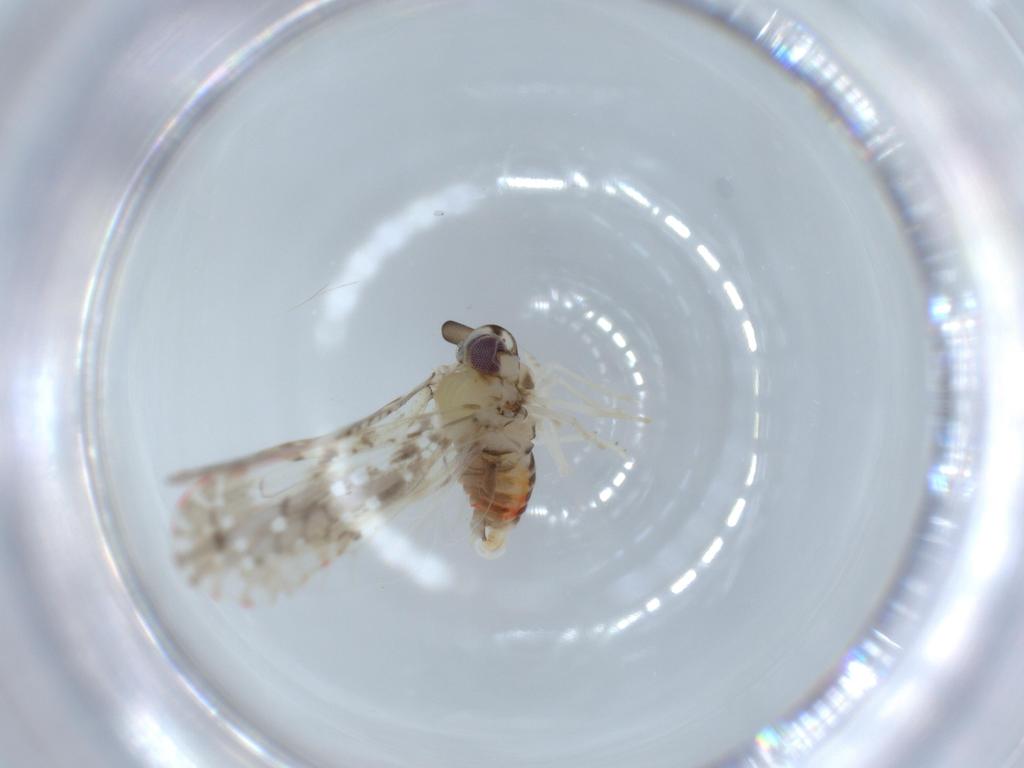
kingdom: Animalia
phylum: Arthropoda
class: Insecta
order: Hemiptera
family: Derbidae
